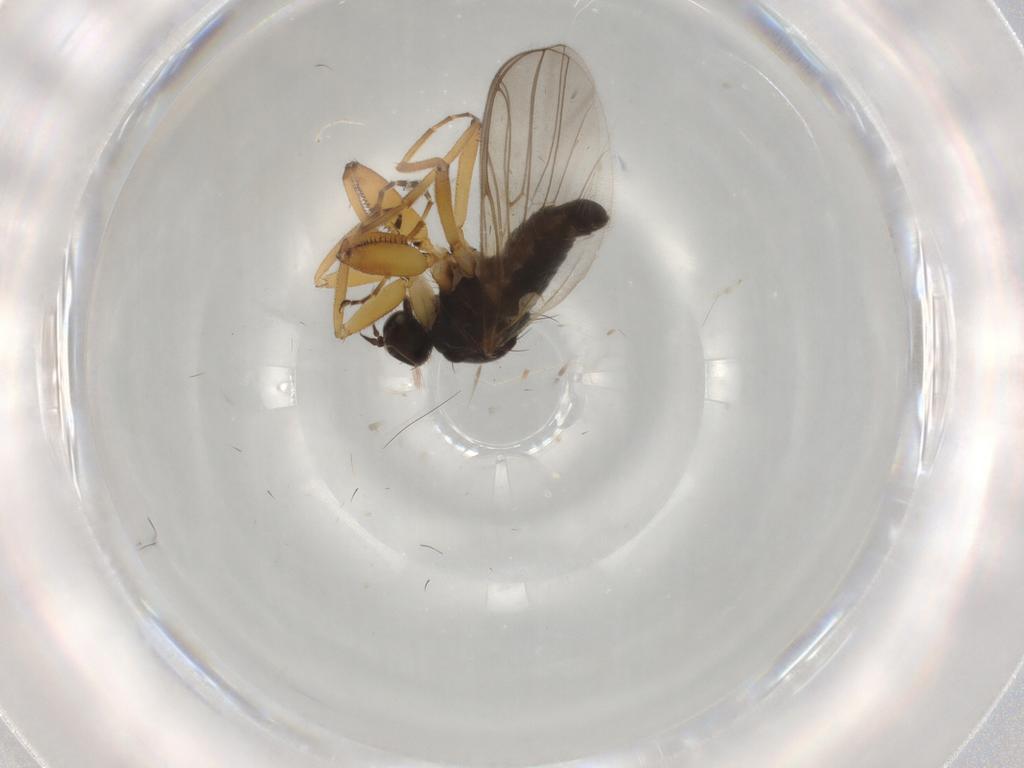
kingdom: Animalia
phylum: Arthropoda
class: Insecta
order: Diptera
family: Hybotidae
